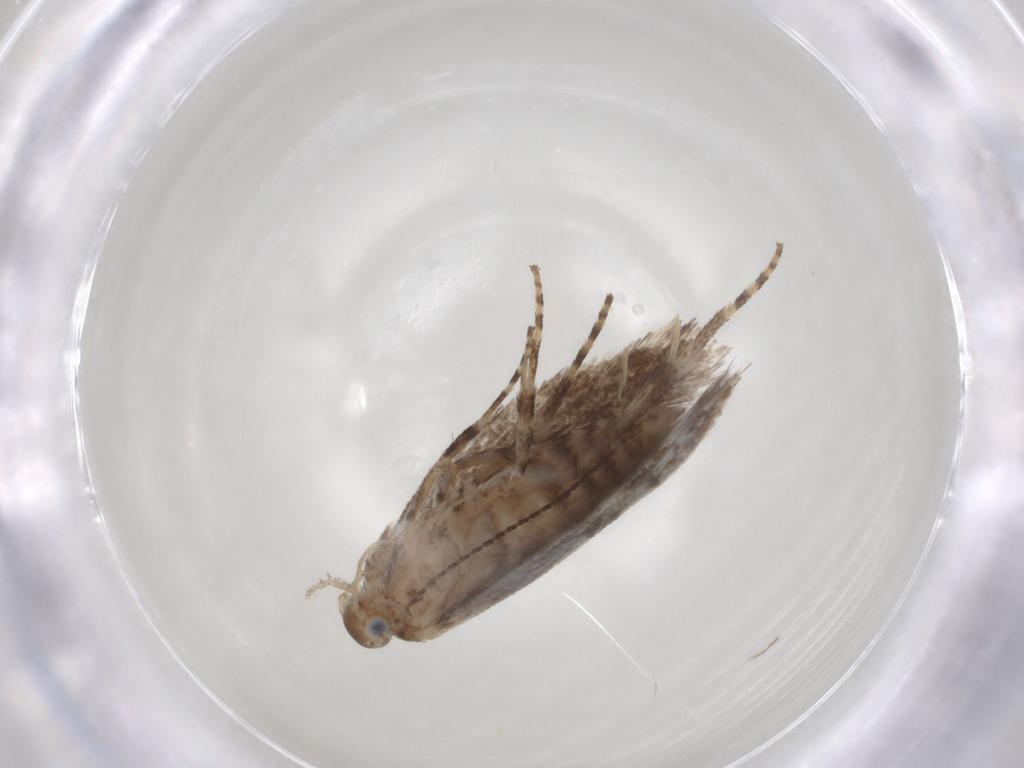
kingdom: Animalia
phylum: Arthropoda
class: Insecta
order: Lepidoptera
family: Glyphipterigidae
